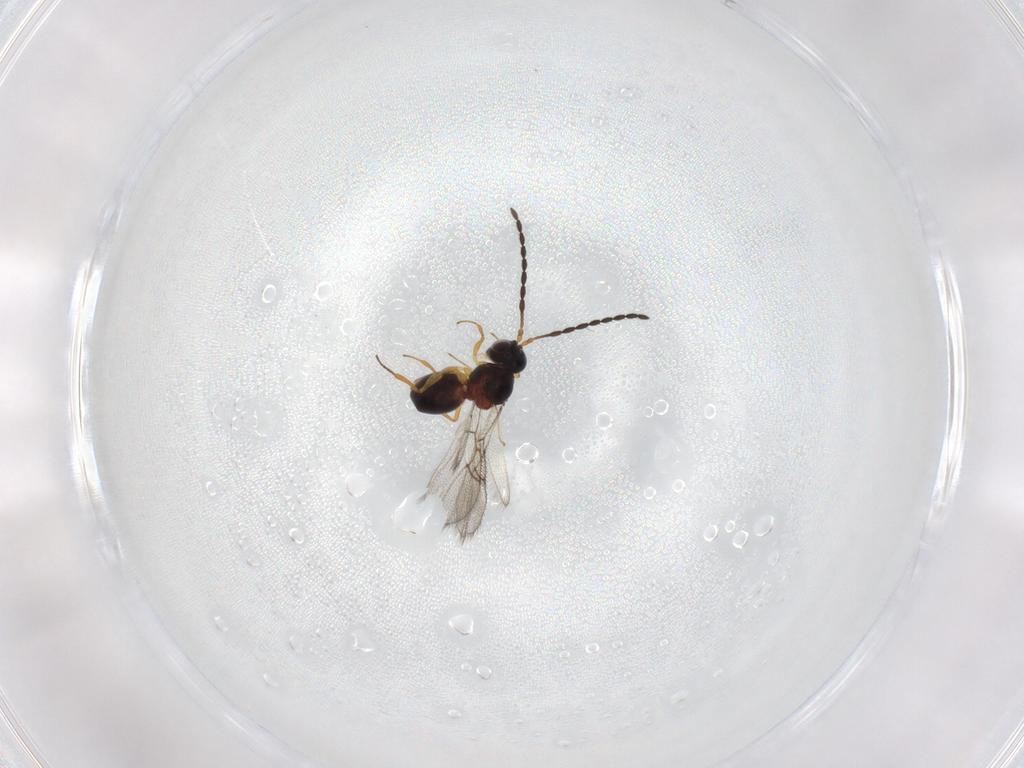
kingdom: Animalia
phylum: Arthropoda
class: Insecta
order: Hymenoptera
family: Figitidae
